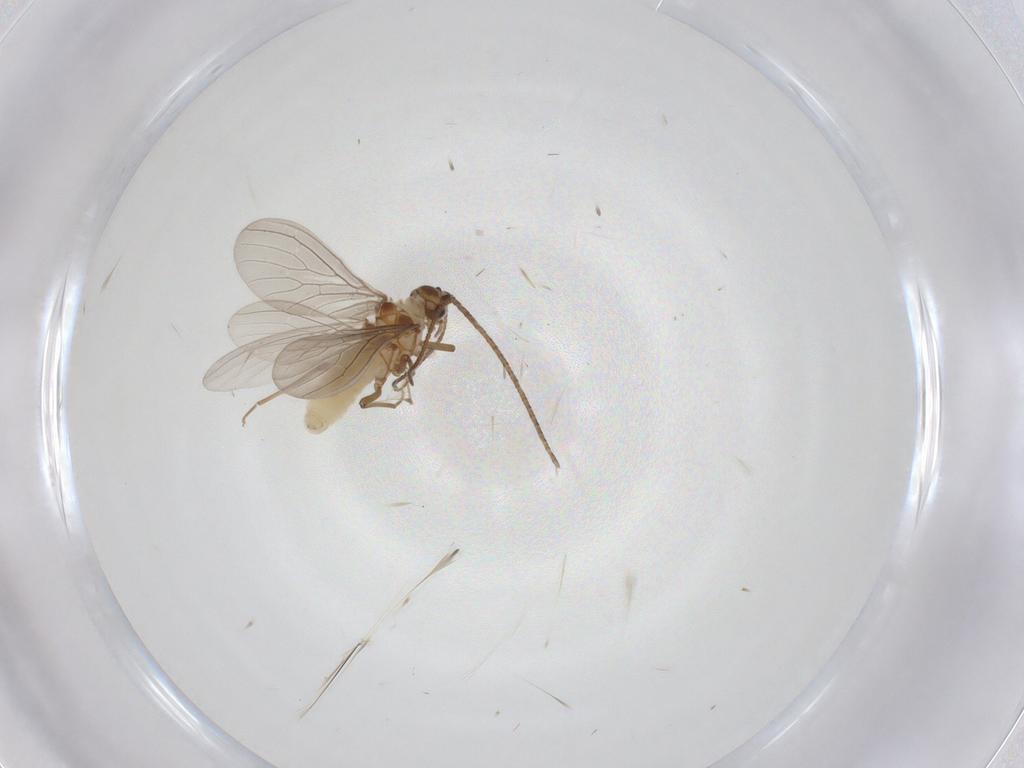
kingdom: Animalia
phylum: Arthropoda
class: Insecta
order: Neuroptera
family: Coniopterygidae
